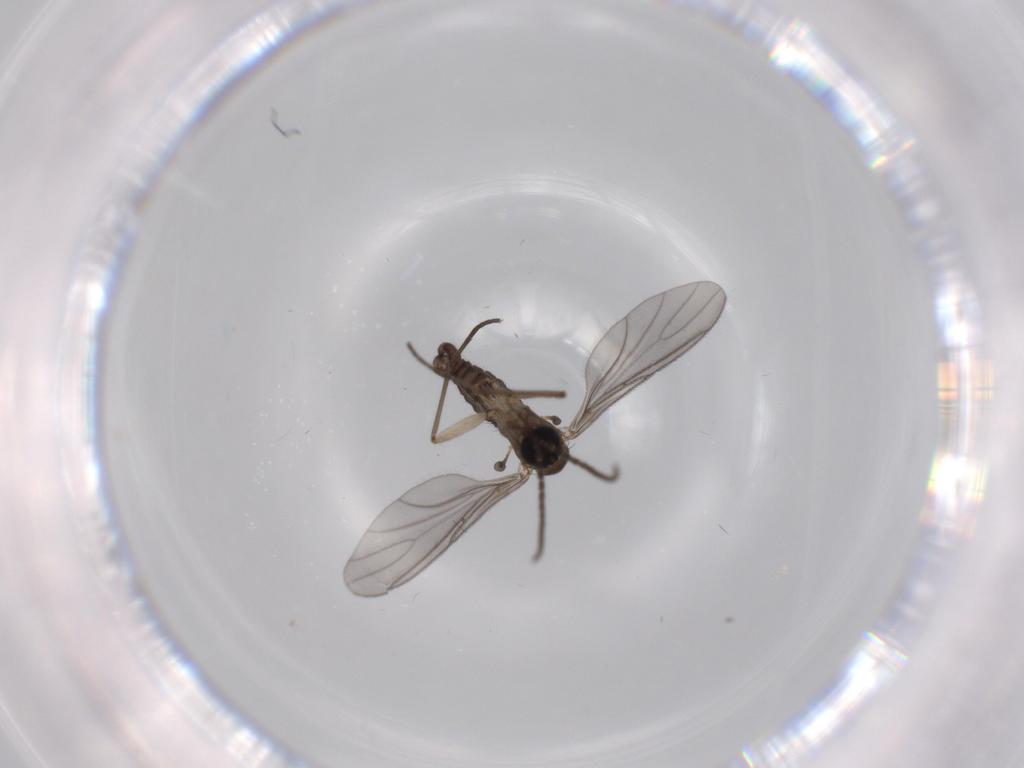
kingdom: Animalia
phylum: Arthropoda
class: Insecta
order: Diptera
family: Sciaridae
